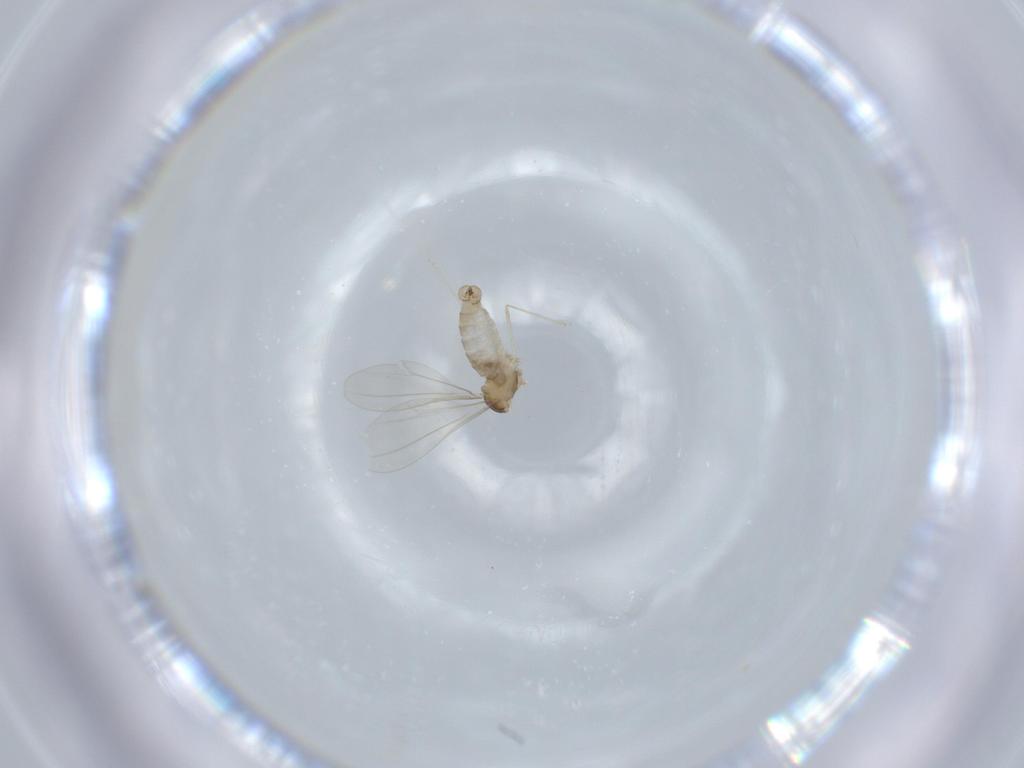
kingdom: Animalia
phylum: Arthropoda
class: Insecta
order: Diptera
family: Cecidomyiidae
